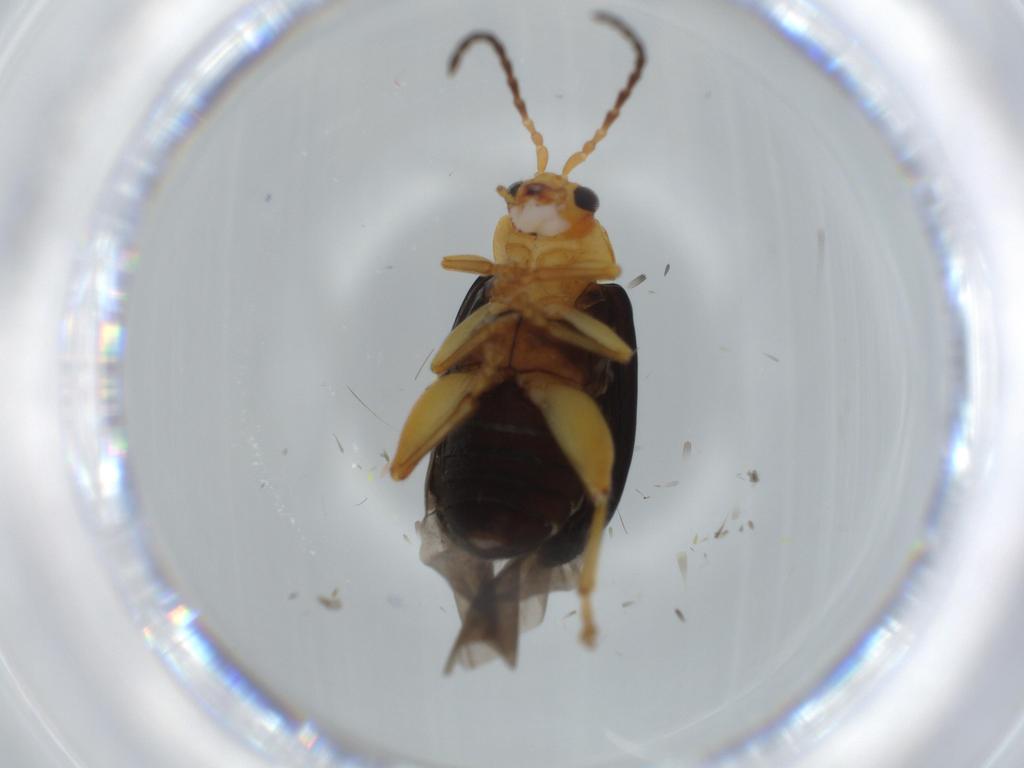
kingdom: Animalia
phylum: Arthropoda
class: Insecta
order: Coleoptera
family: Chrysomelidae
